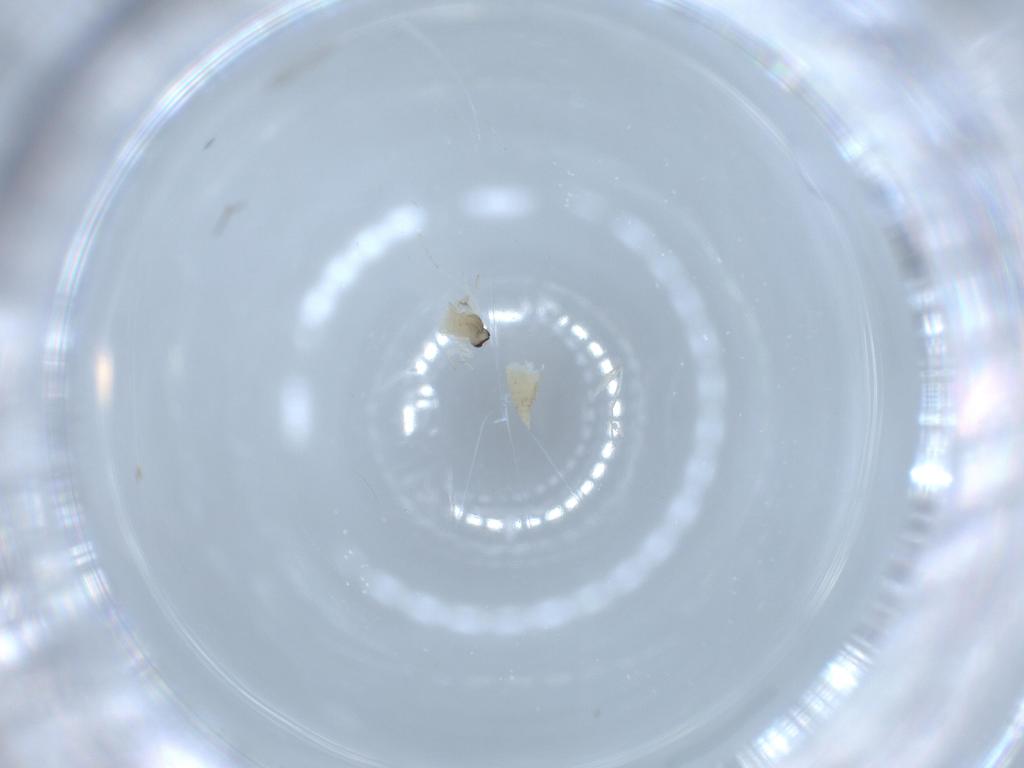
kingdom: Animalia
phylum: Arthropoda
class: Insecta
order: Diptera
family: Cecidomyiidae
